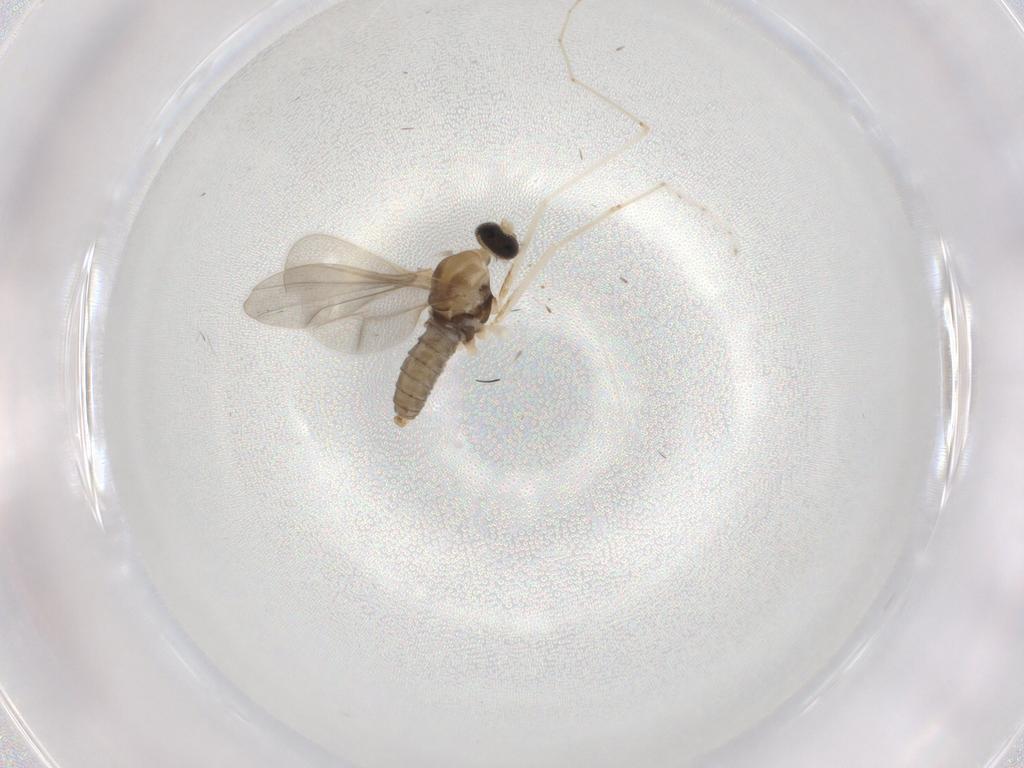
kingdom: Animalia
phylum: Arthropoda
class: Insecta
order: Diptera
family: Cecidomyiidae
